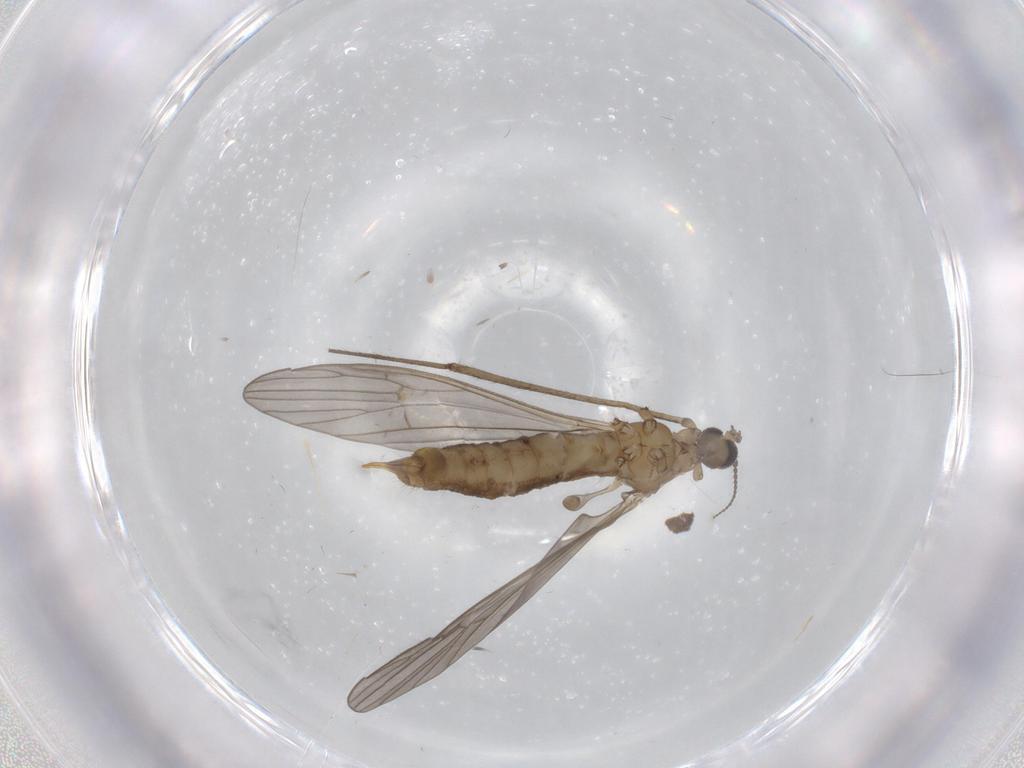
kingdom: Animalia
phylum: Arthropoda
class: Insecta
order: Diptera
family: Limoniidae
